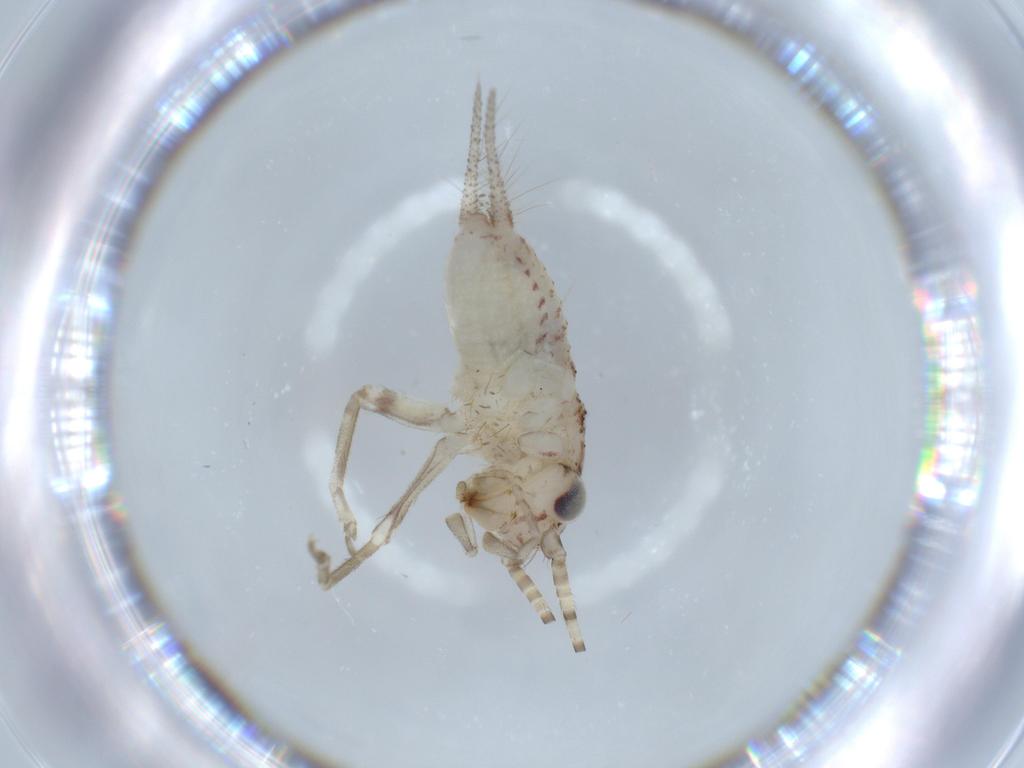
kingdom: Animalia
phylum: Arthropoda
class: Insecta
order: Orthoptera
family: Trigonidiidae
